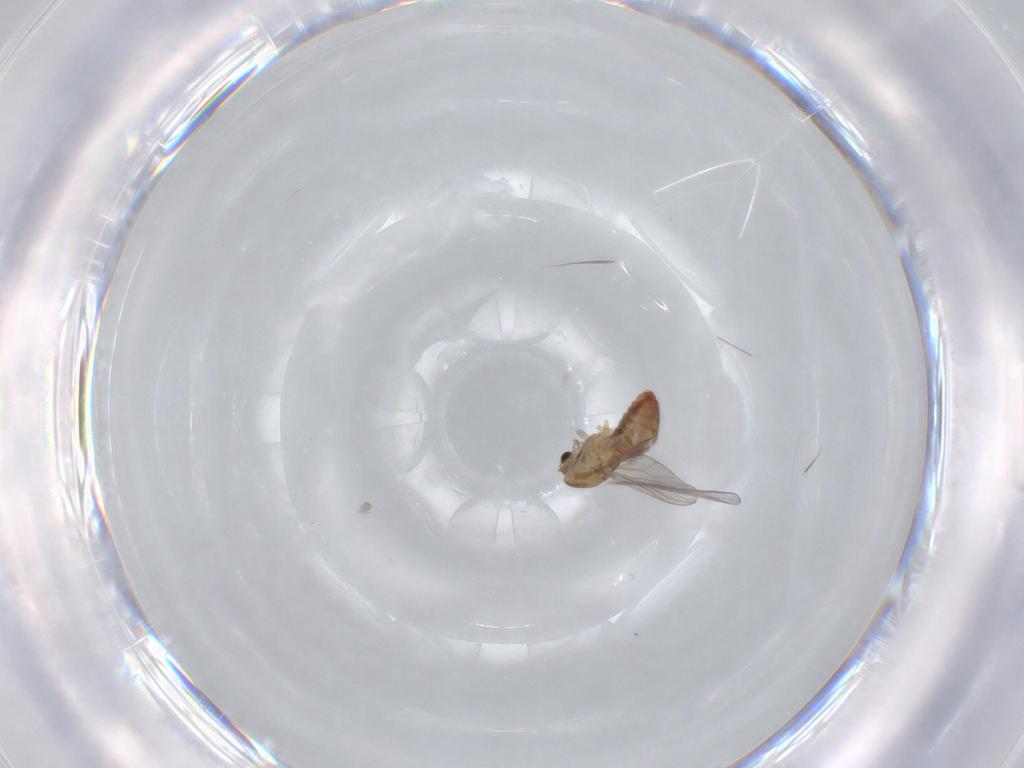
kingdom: Animalia
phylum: Arthropoda
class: Insecta
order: Diptera
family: Chironomidae
